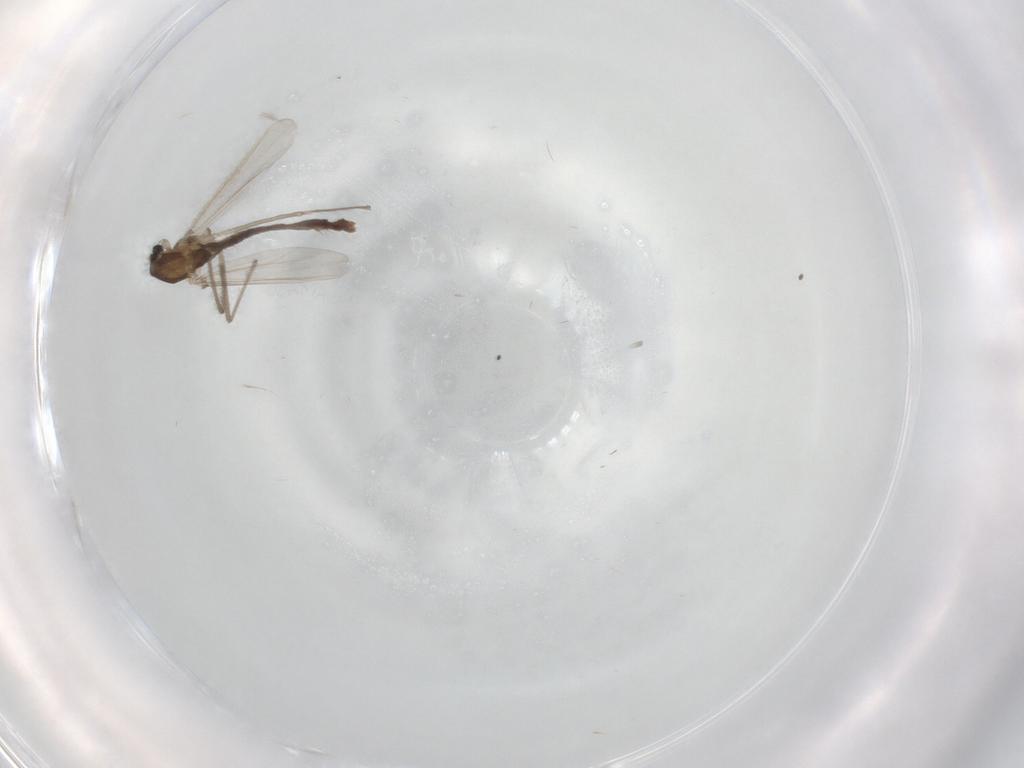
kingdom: Animalia
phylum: Arthropoda
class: Insecta
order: Diptera
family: Chironomidae
